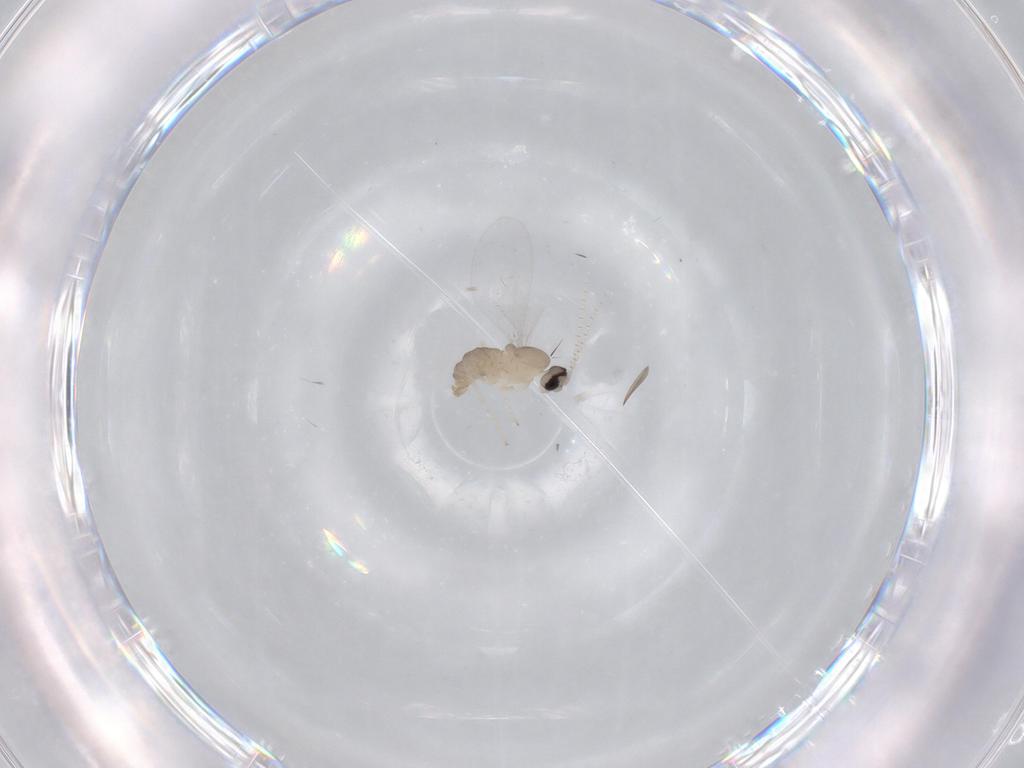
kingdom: Animalia
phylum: Arthropoda
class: Insecta
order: Diptera
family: Cecidomyiidae
